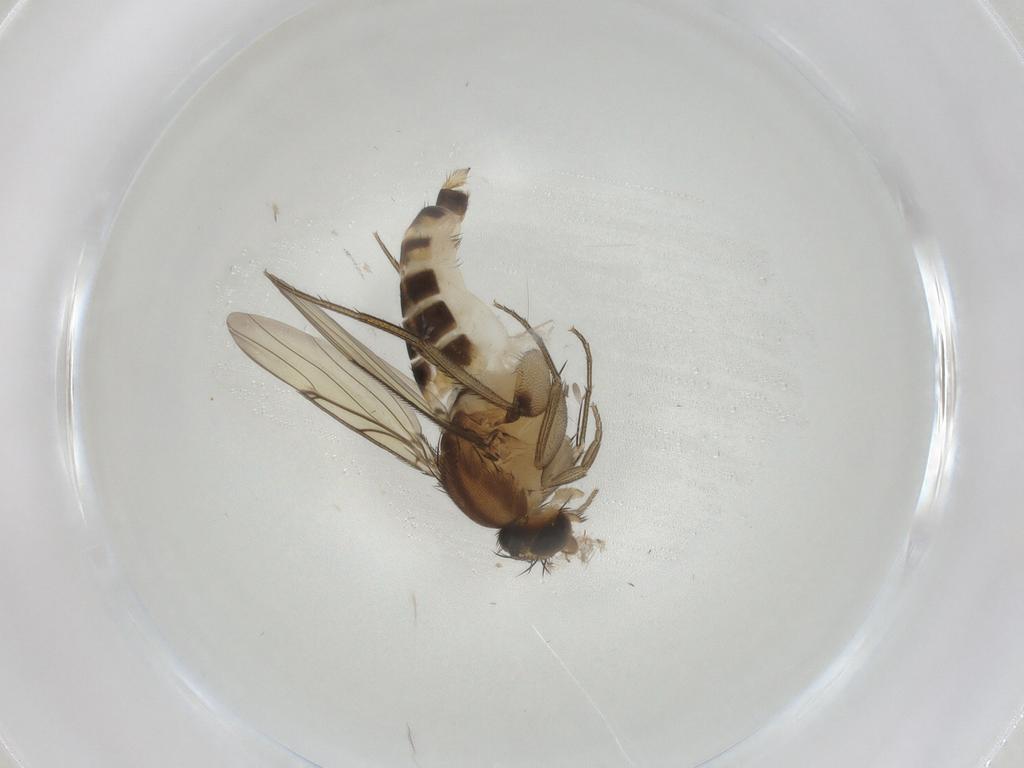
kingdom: Animalia
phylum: Arthropoda
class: Insecta
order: Diptera
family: Phoridae
